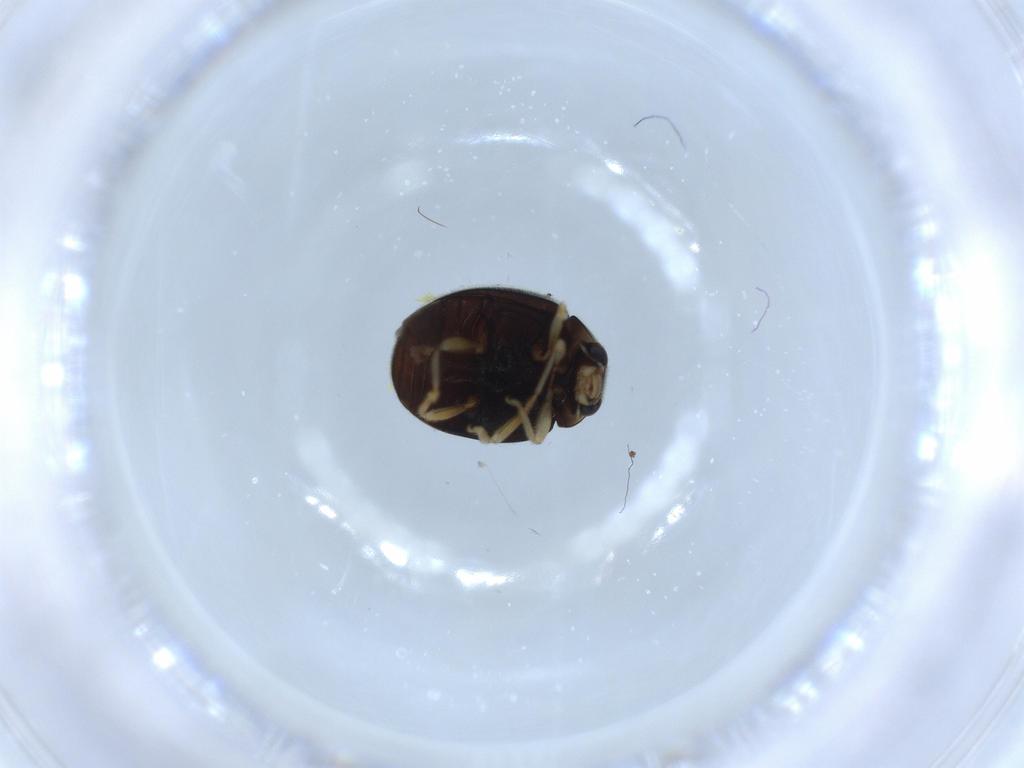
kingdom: Animalia
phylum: Arthropoda
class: Insecta
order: Coleoptera
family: Coccinellidae
